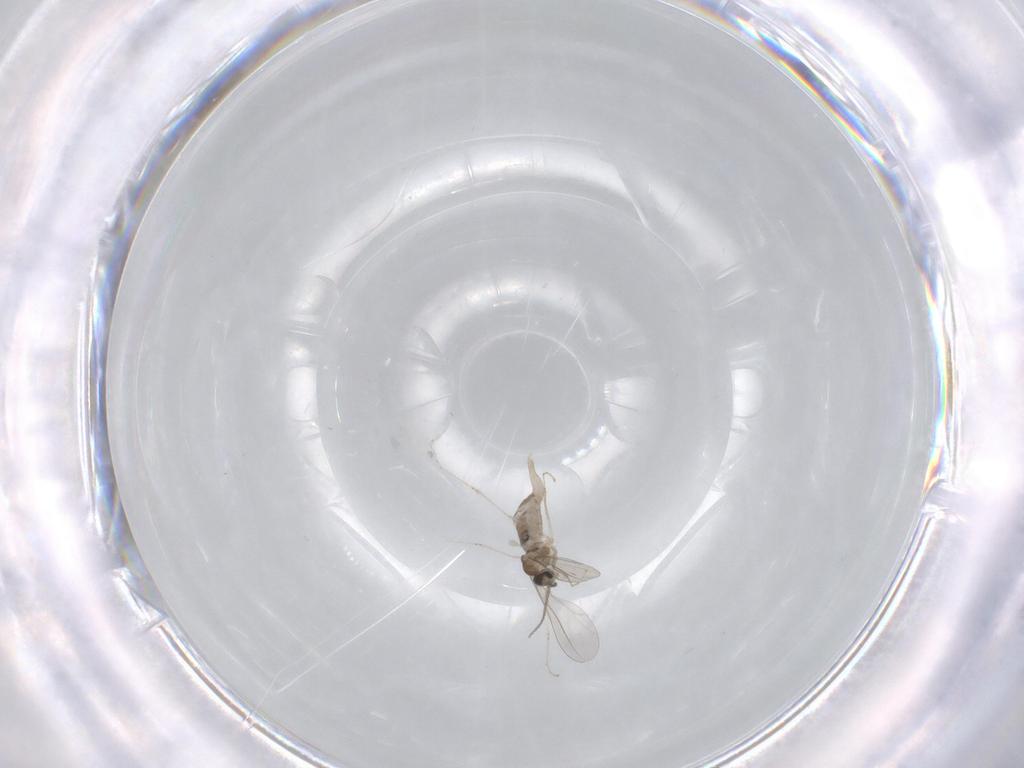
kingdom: Animalia
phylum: Arthropoda
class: Insecta
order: Diptera
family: Cecidomyiidae
